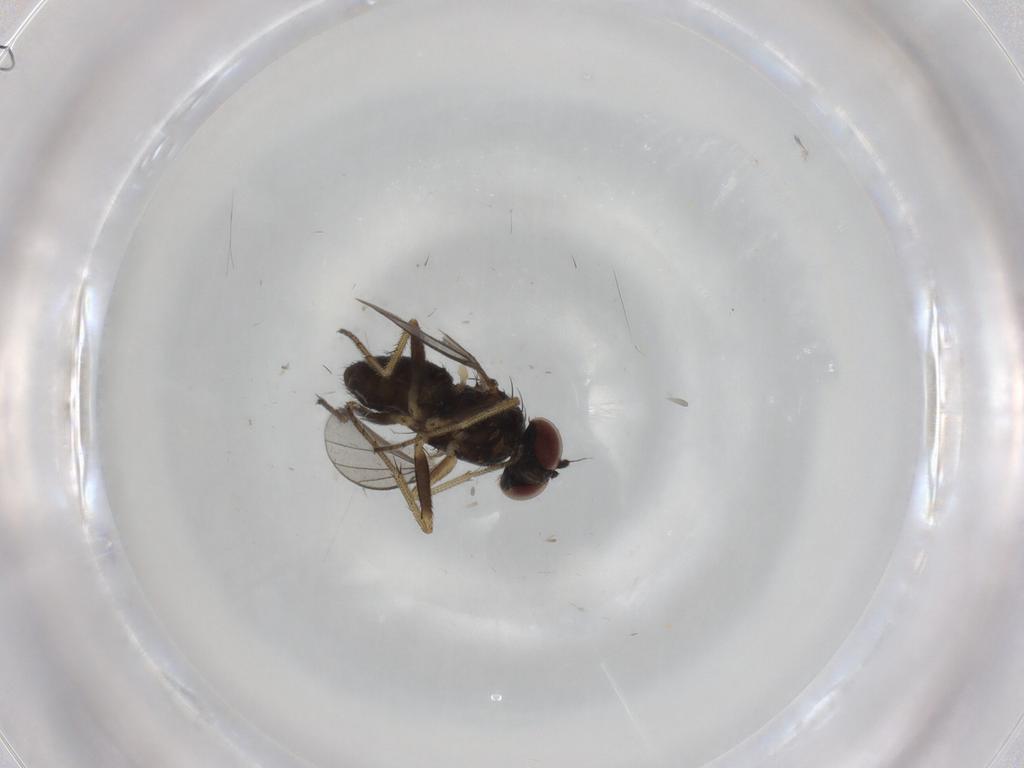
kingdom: Animalia
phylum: Arthropoda
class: Insecta
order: Diptera
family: Dolichopodidae
